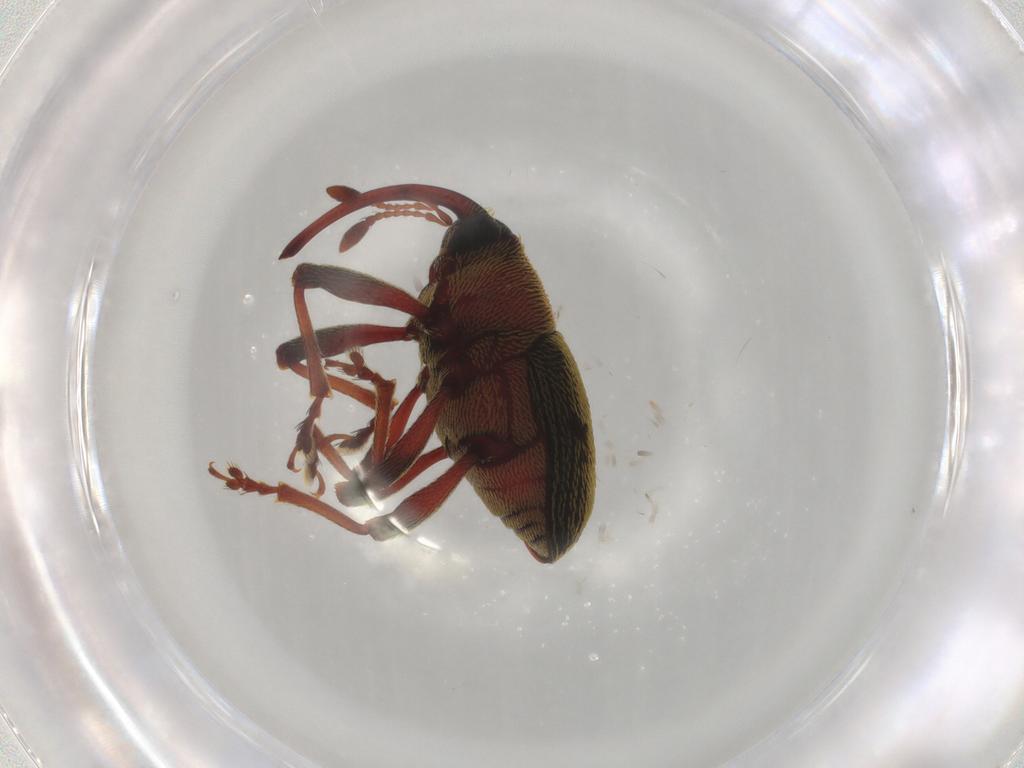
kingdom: Animalia
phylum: Arthropoda
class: Insecta
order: Coleoptera
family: Curculionidae
